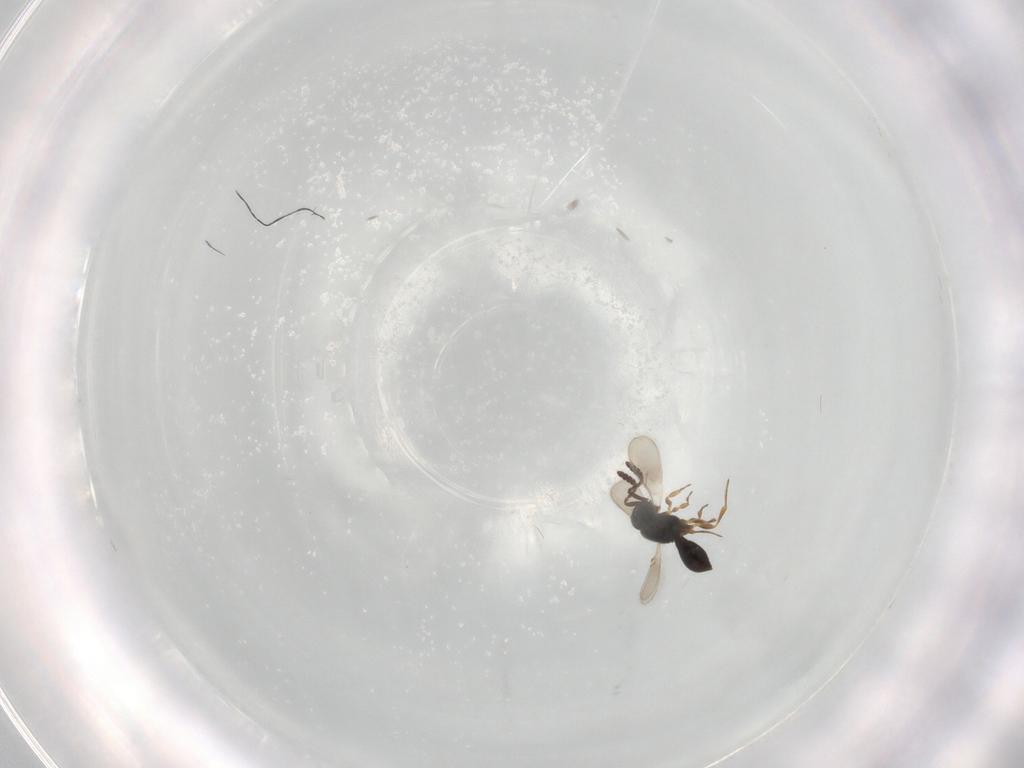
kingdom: Animalia
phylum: Arthropoda
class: Insecta
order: Hymenoptera
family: Scelionidae
